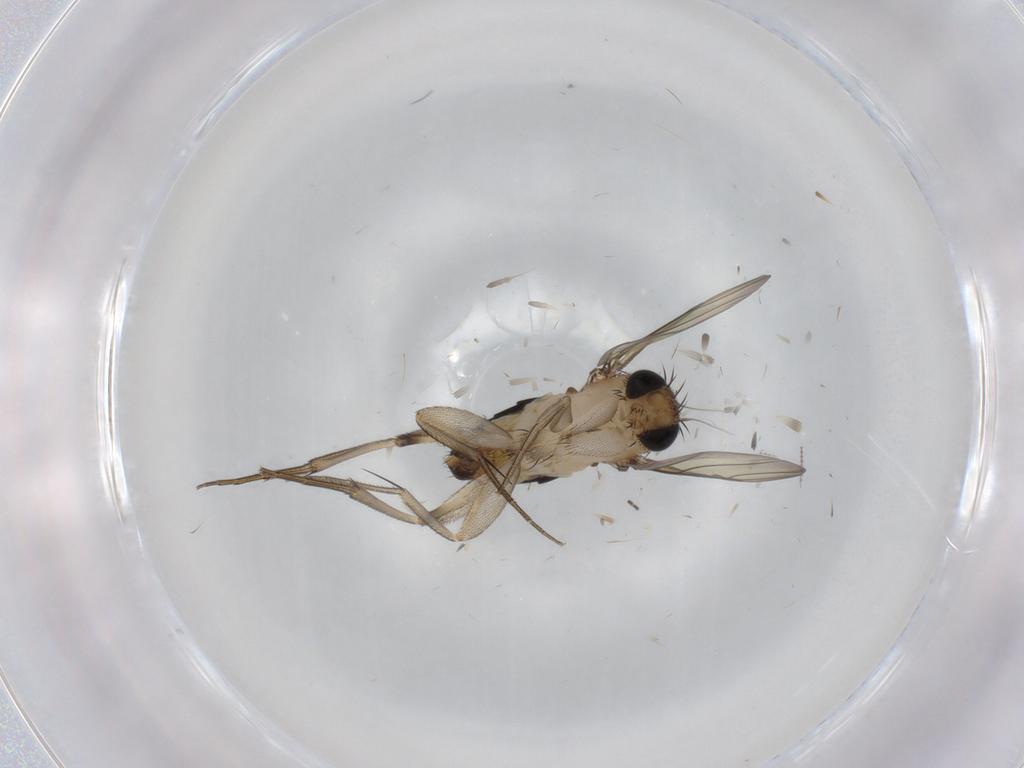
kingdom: Animalia
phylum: Arthropoda
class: Insecta
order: Diptera
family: Phoridae
